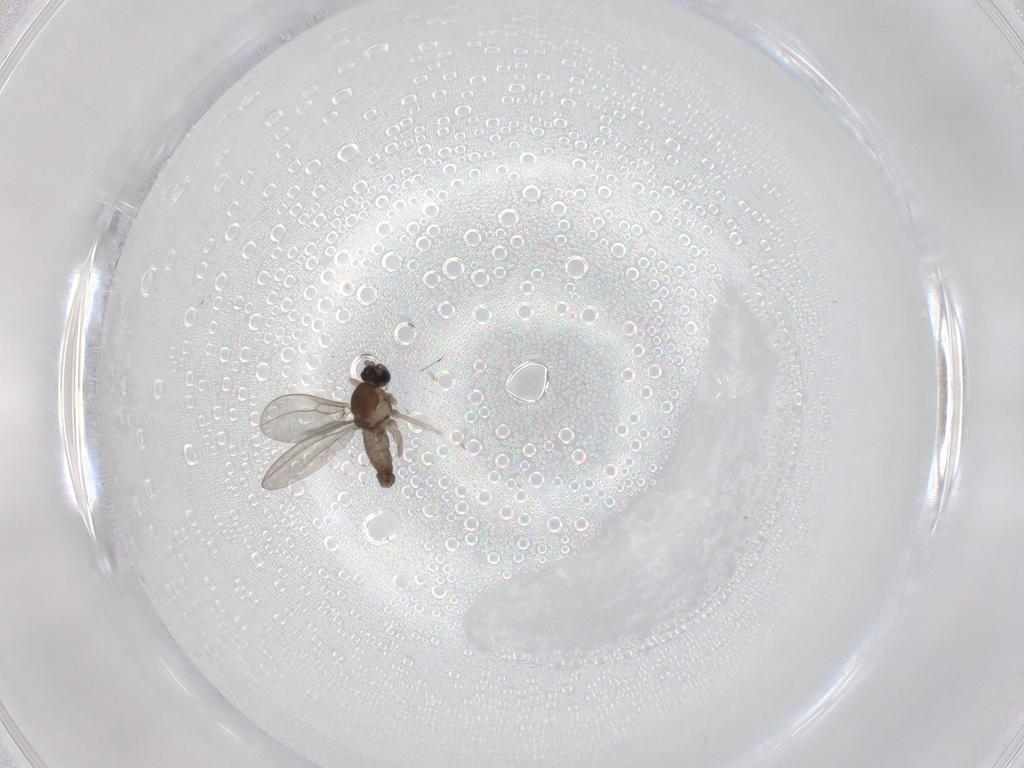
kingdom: Animalia
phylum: Arthropoda
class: Insecta
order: Diptera
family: Cecidomyiidae
